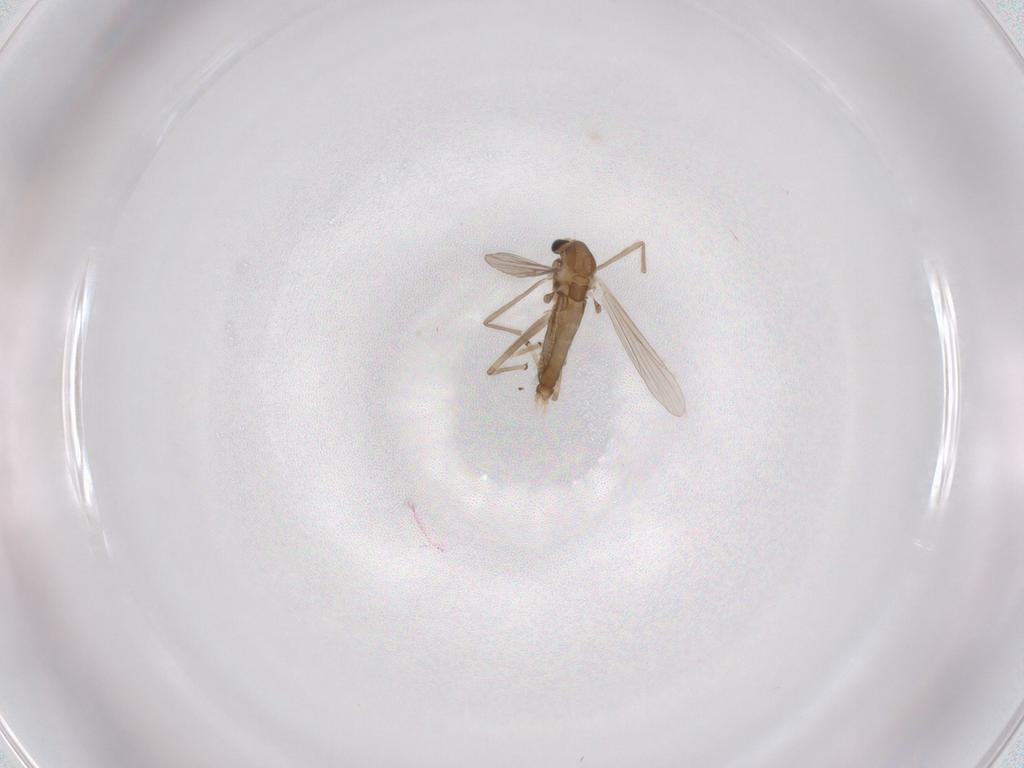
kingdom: Animalia
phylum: Arthropoda
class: Insecta
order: Diptera
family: Chironomidae
